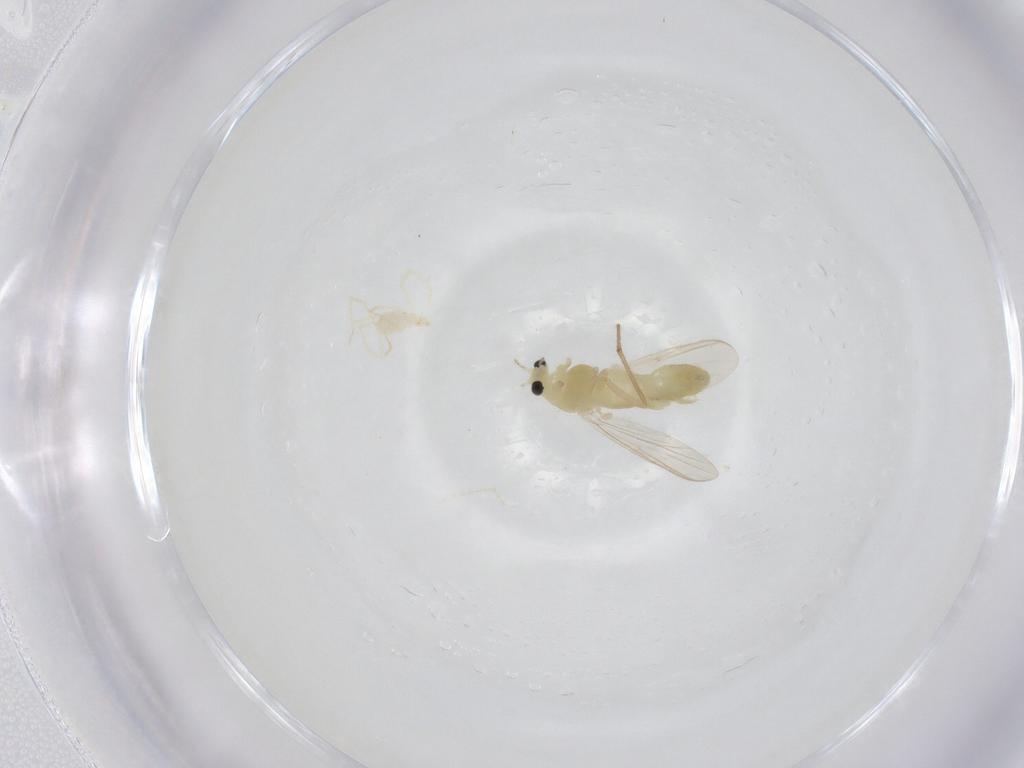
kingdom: Animalia
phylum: Arthropoda
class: Insecta
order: Diptera
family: Chironomidae
